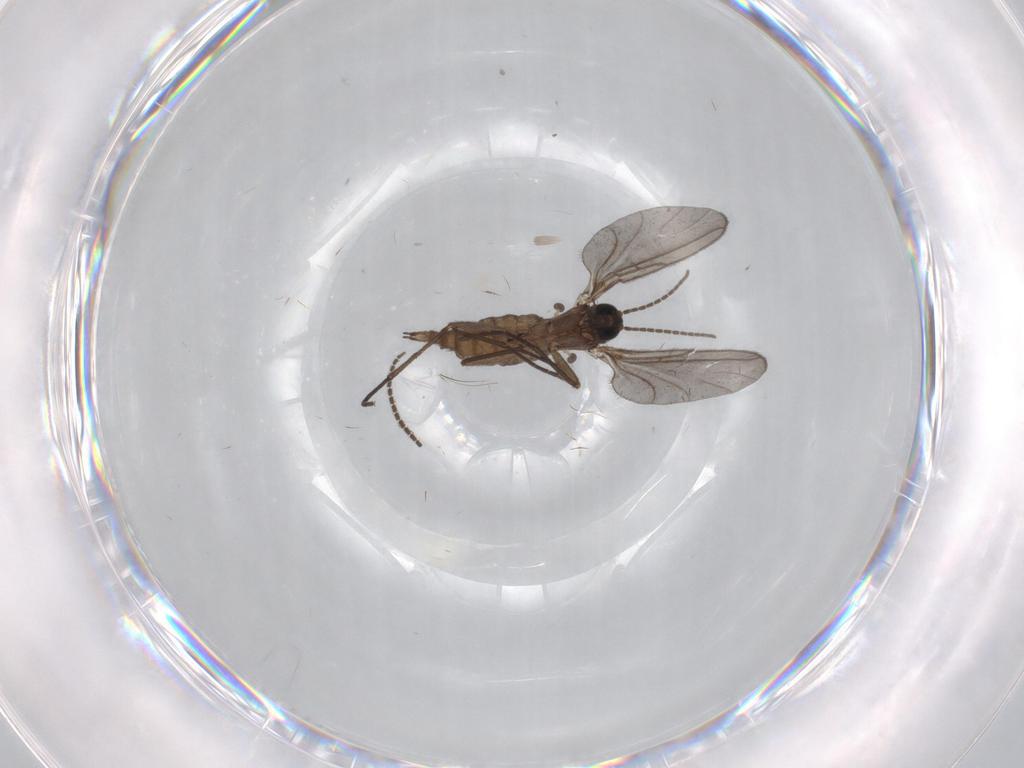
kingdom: Animalia
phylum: Arthropoda
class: Insecta
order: Diptera
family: Sciaridae
